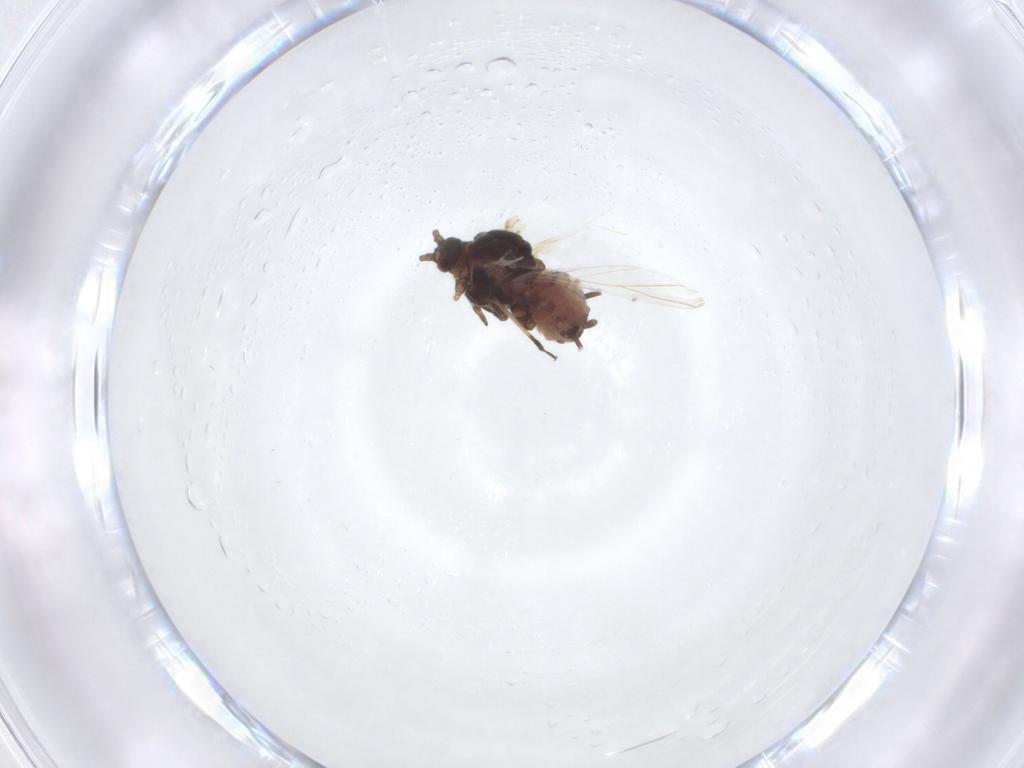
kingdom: Animalia
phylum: Arthropoda
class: Insecta
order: Hemiptera
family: Aphididae
